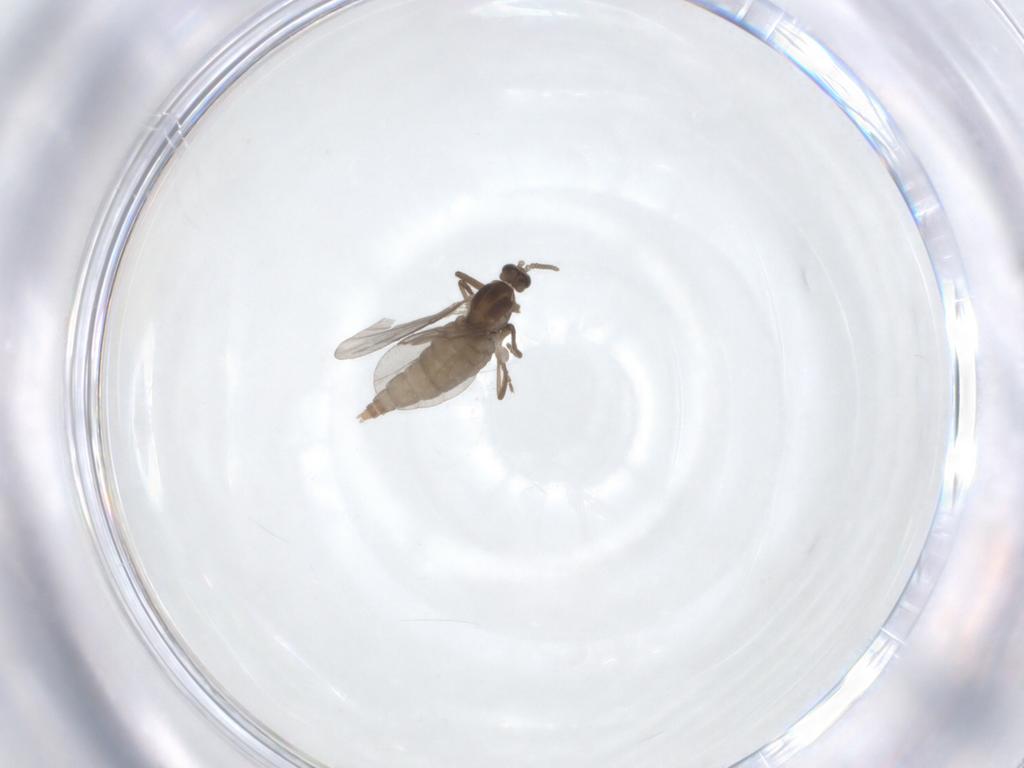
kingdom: Animalia
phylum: Arthropoda
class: Insecta
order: Diptera
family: Cecidomyiidae
